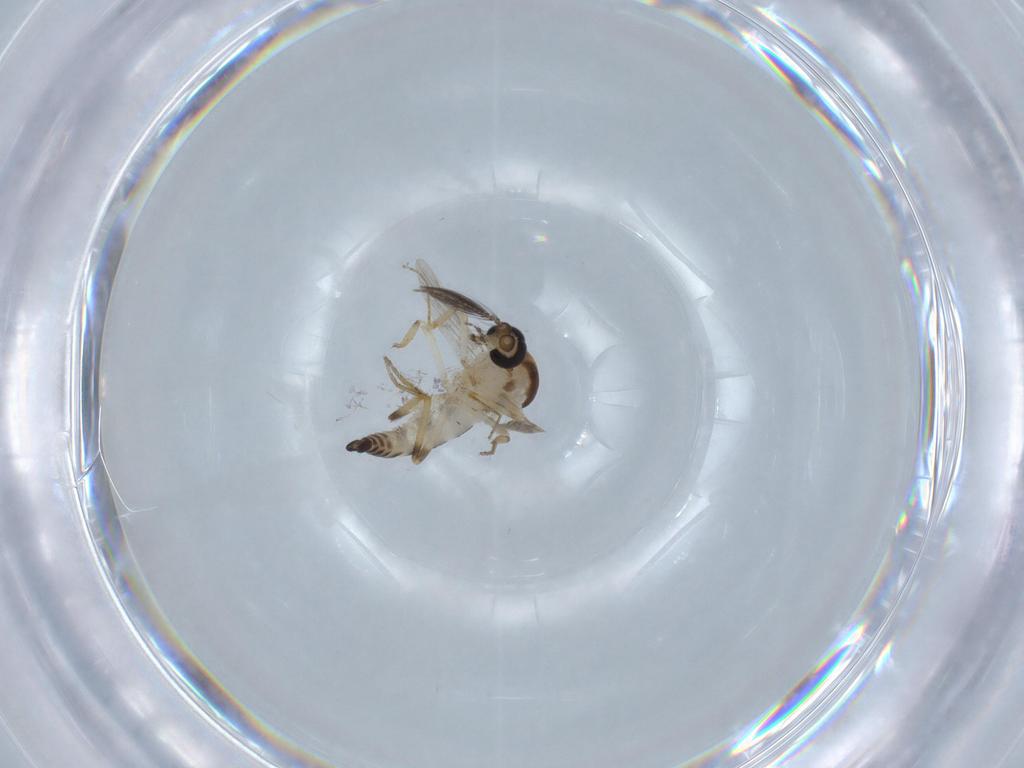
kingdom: Animalia
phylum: Arthropoda
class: Insecta
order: Diptera
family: Chironomidae
